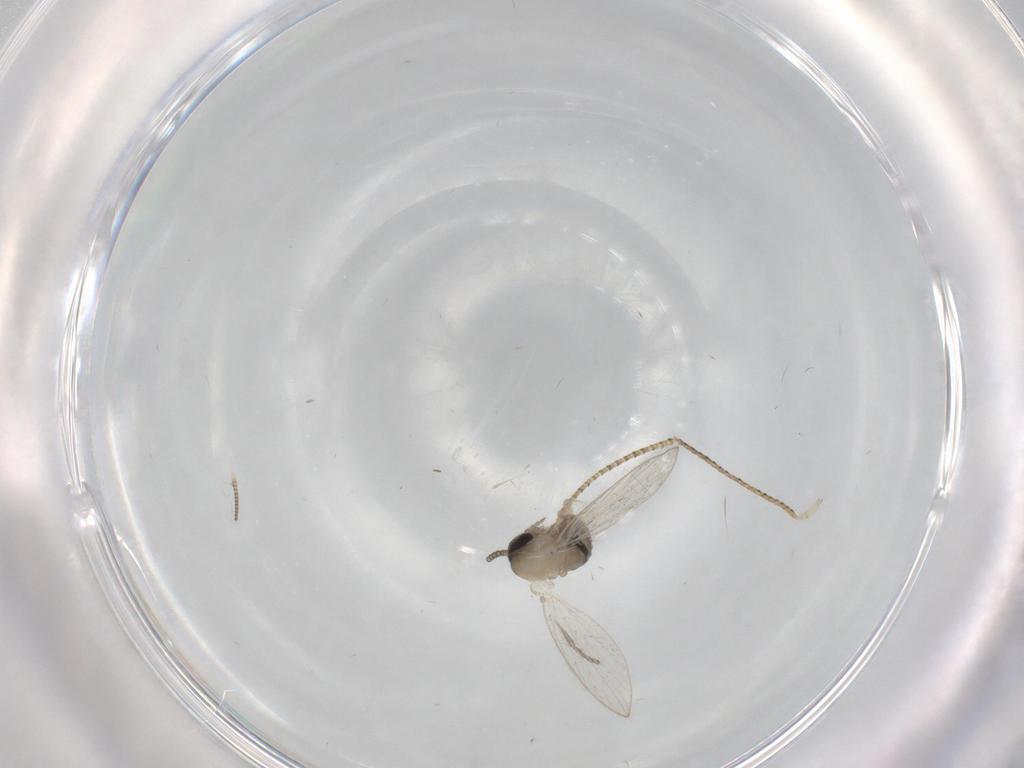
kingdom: Animalia
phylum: Arthropoda
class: Insecta
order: Diptera
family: Psychodidae
